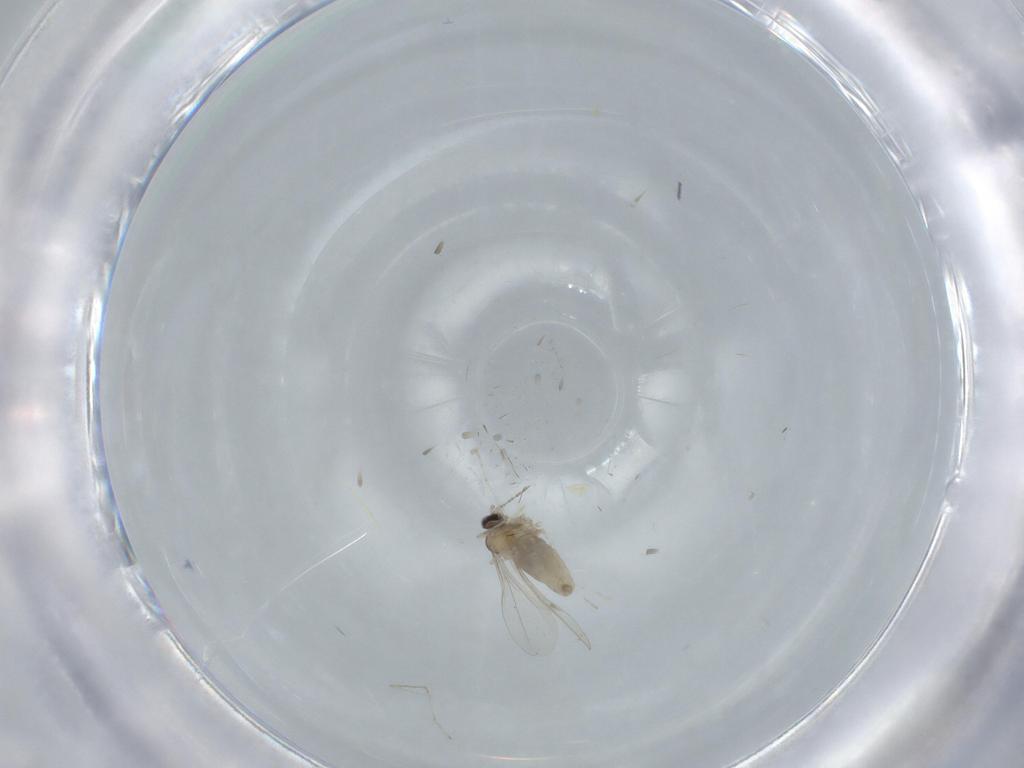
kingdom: Animalia
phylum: Arthropoda
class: Insecta
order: Diptera
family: Cecidomyiidae
